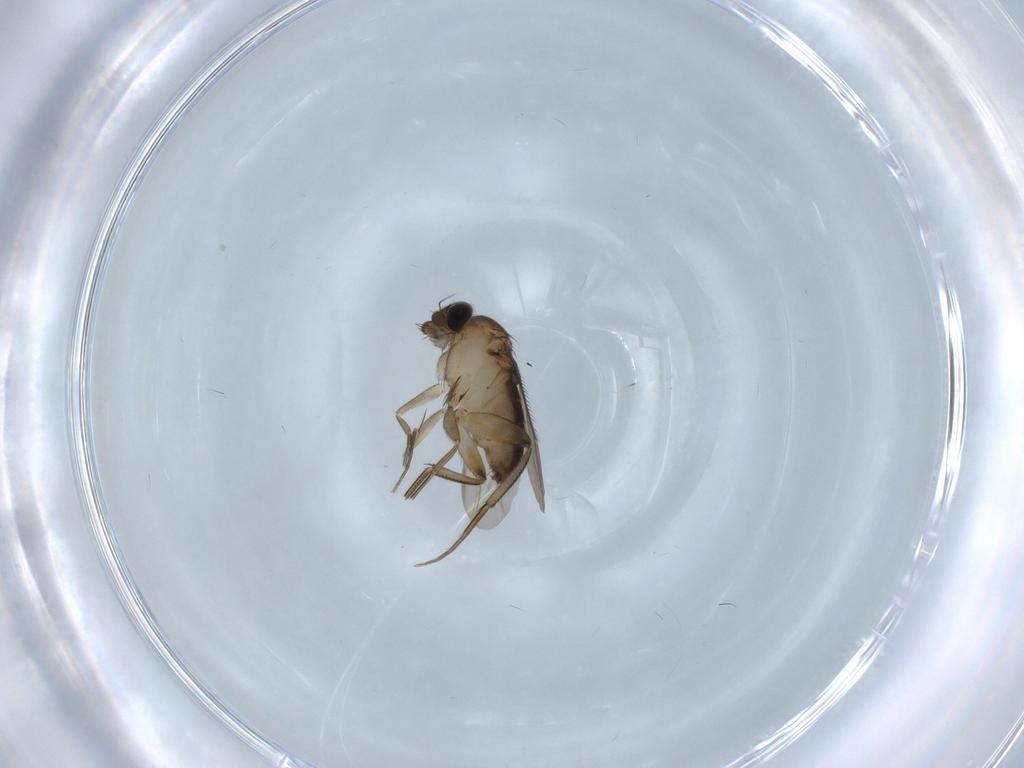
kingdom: Animalia
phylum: Arthropoda
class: Insecta
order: Diptera
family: Phoridae
